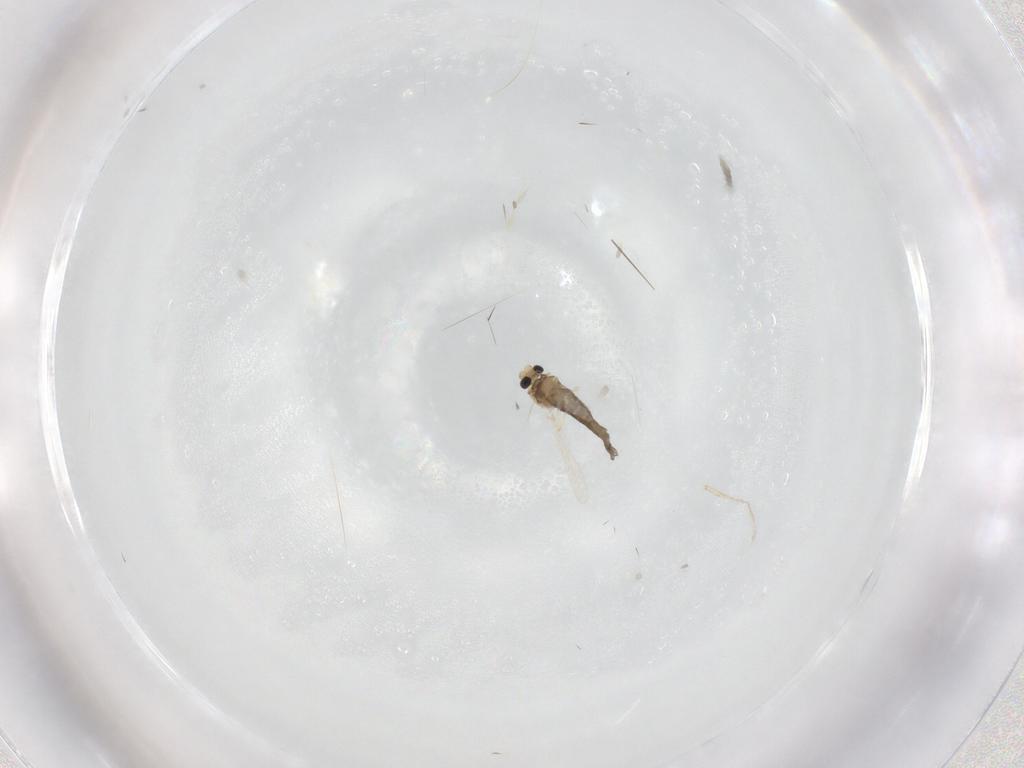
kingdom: Animalia
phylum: Arthropoda
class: Insecta
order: Diptera
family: Chironomidae
